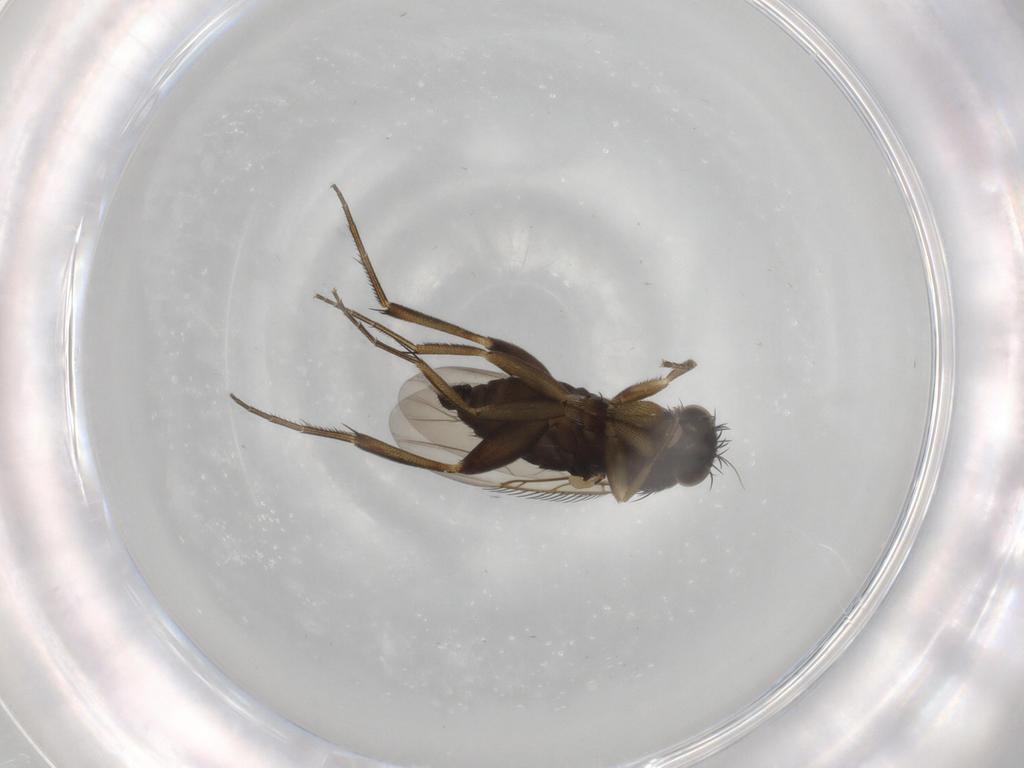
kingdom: Animalia
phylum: Arthropoda
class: Insecta
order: Diptera
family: Phoridae
